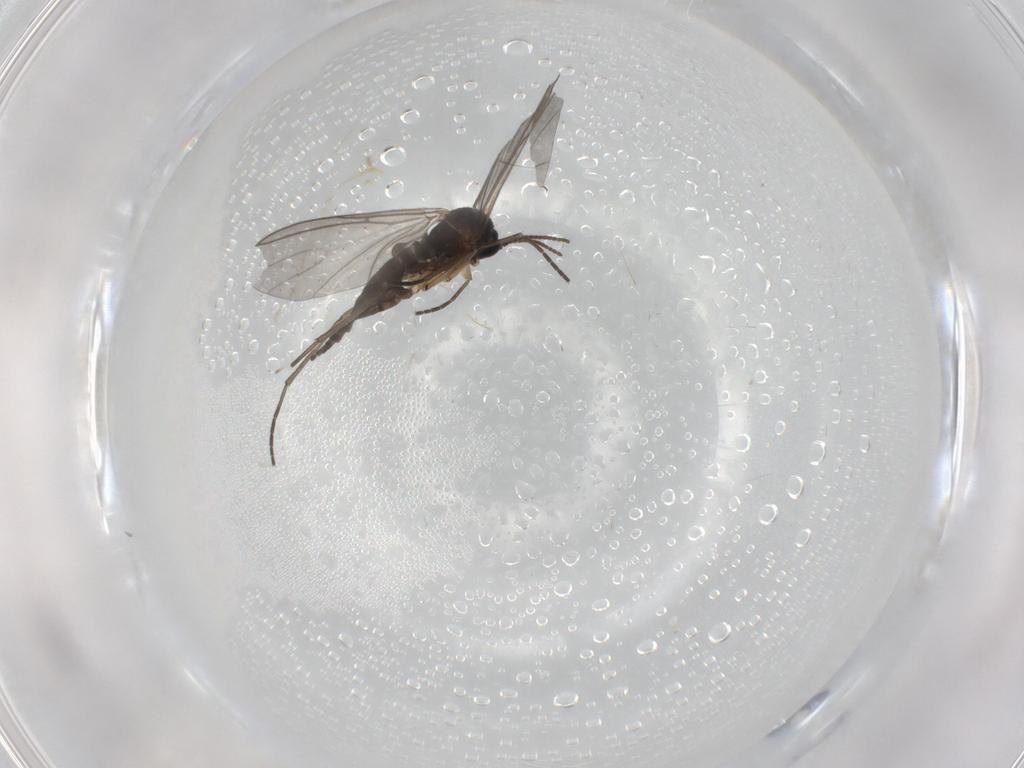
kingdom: Animalia
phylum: Arthropoda
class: Insecta
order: Diptera
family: Sciaridae
